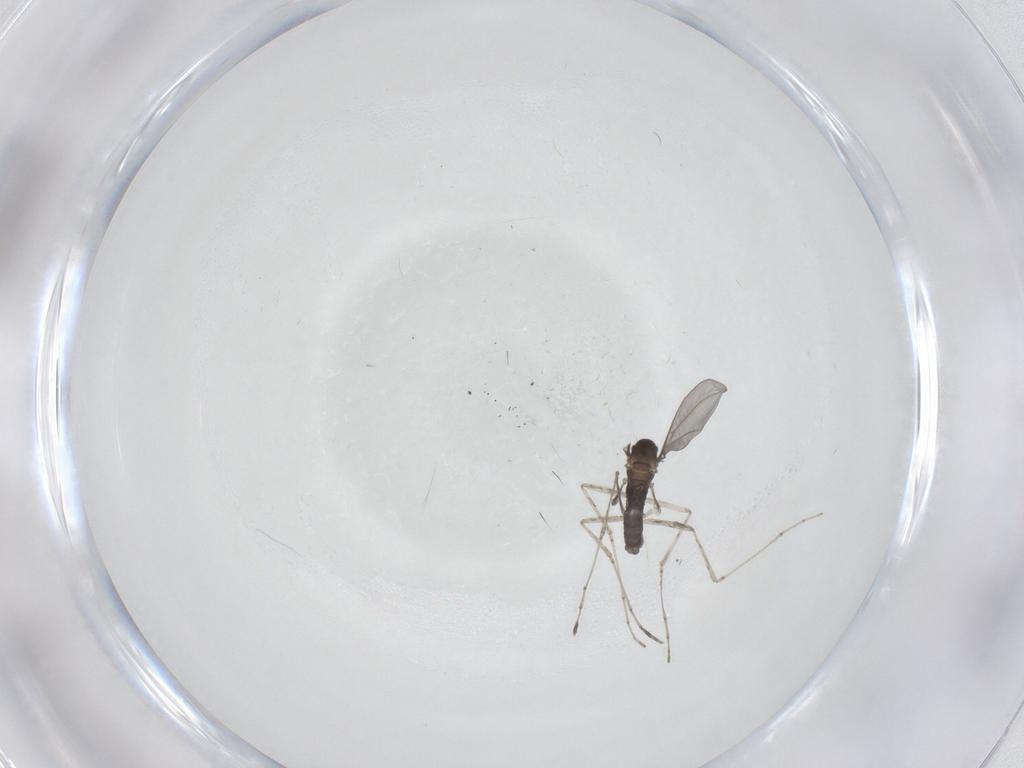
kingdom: Animalia
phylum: Arthropoda
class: Insecta
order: Diptera
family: Cecidomyiidae
